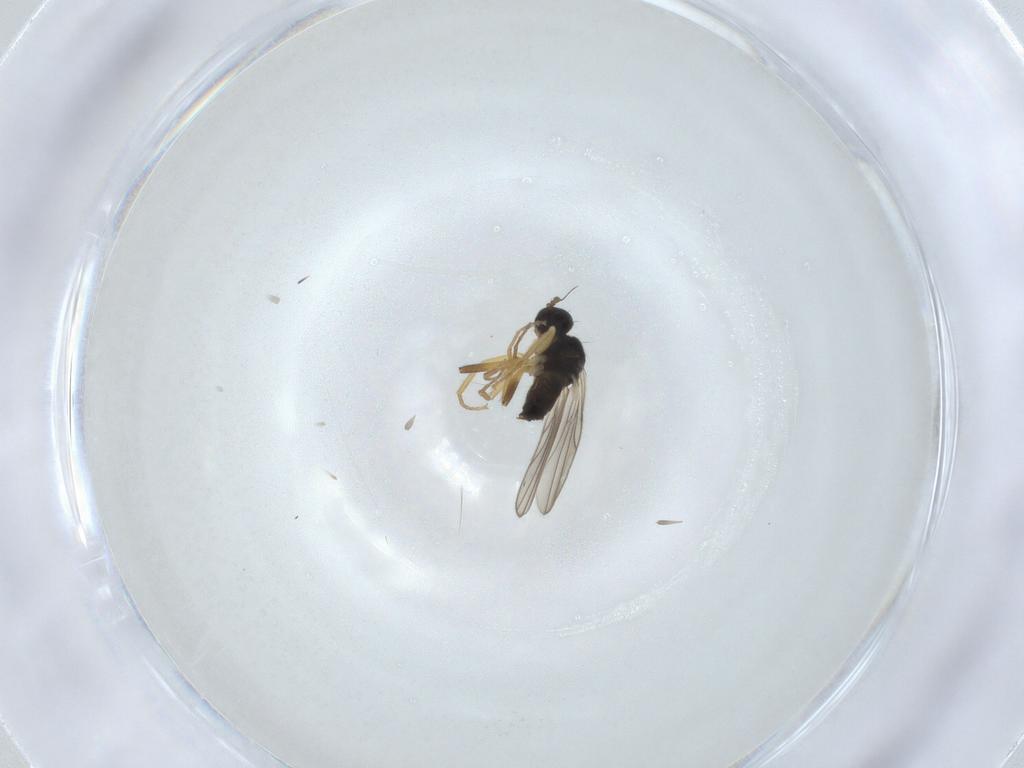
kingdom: Animalia
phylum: Arthropoda
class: Insecta
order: Diptera
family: Hybotidae
